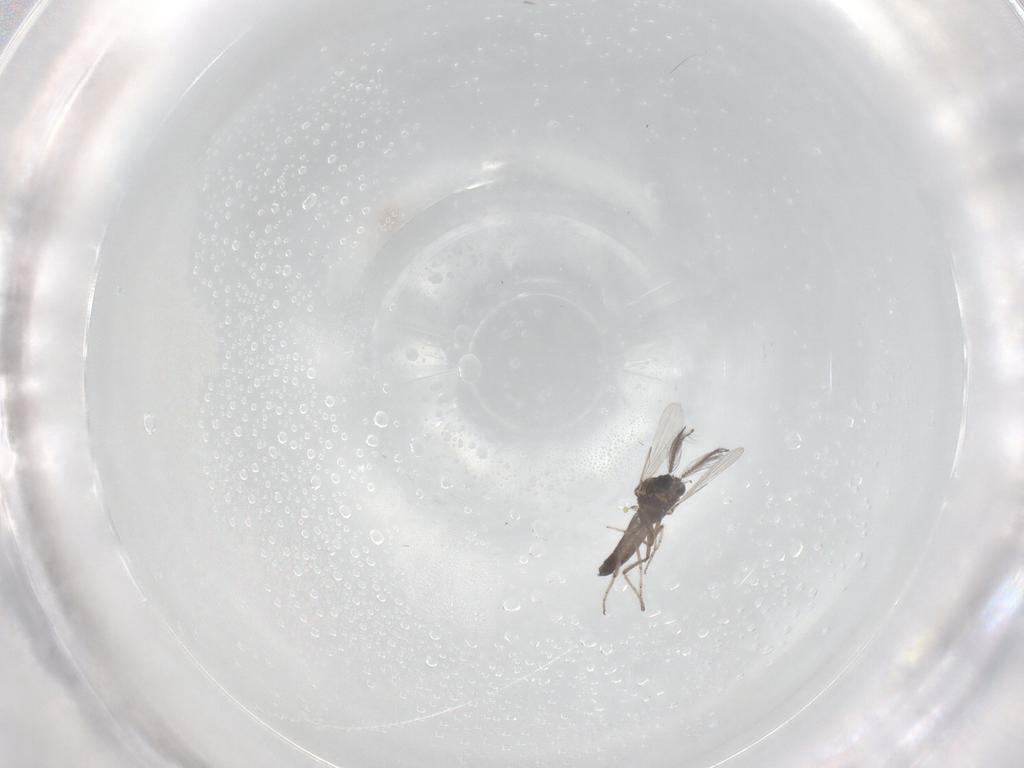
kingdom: Animalia
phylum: Arthropoda
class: Insecta
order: Diptera
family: Ceratopogonidae
